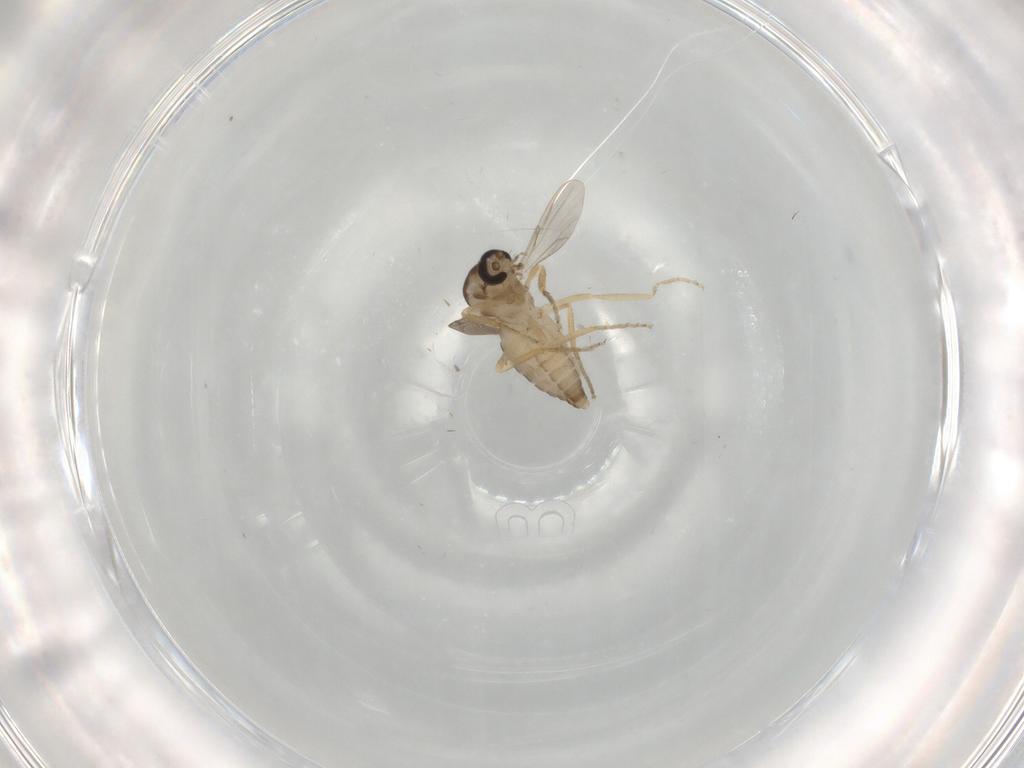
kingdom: Animalia
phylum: Arthropoda
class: Insecta
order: Diptera
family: Ceratopogonidae
